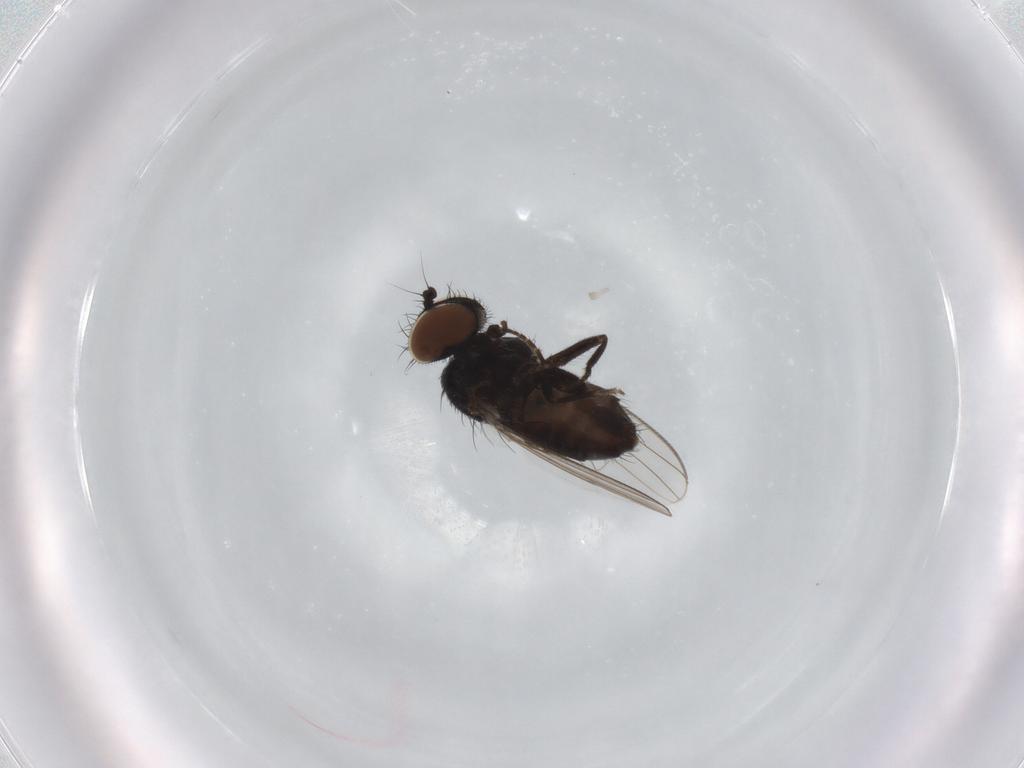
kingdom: Animalia
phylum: Arthropoda
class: Insecta
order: Diptera
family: Milichiidae
